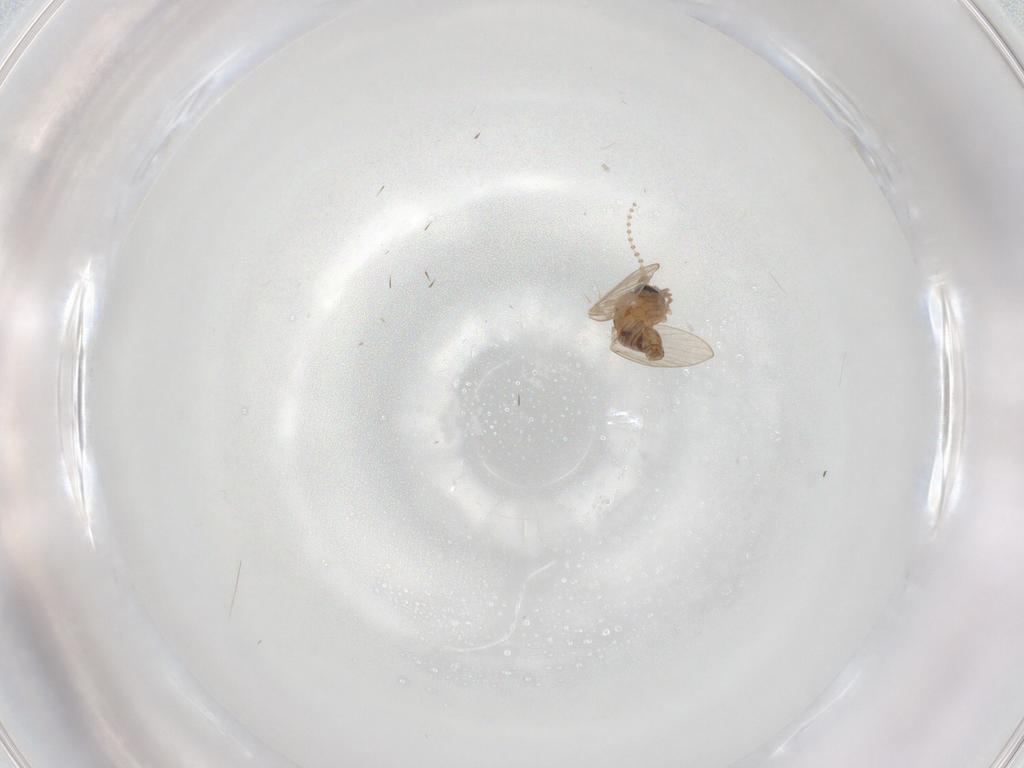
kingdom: Animalia
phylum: Arthropoda
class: Insecta
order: Diptera
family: Psychodidae
